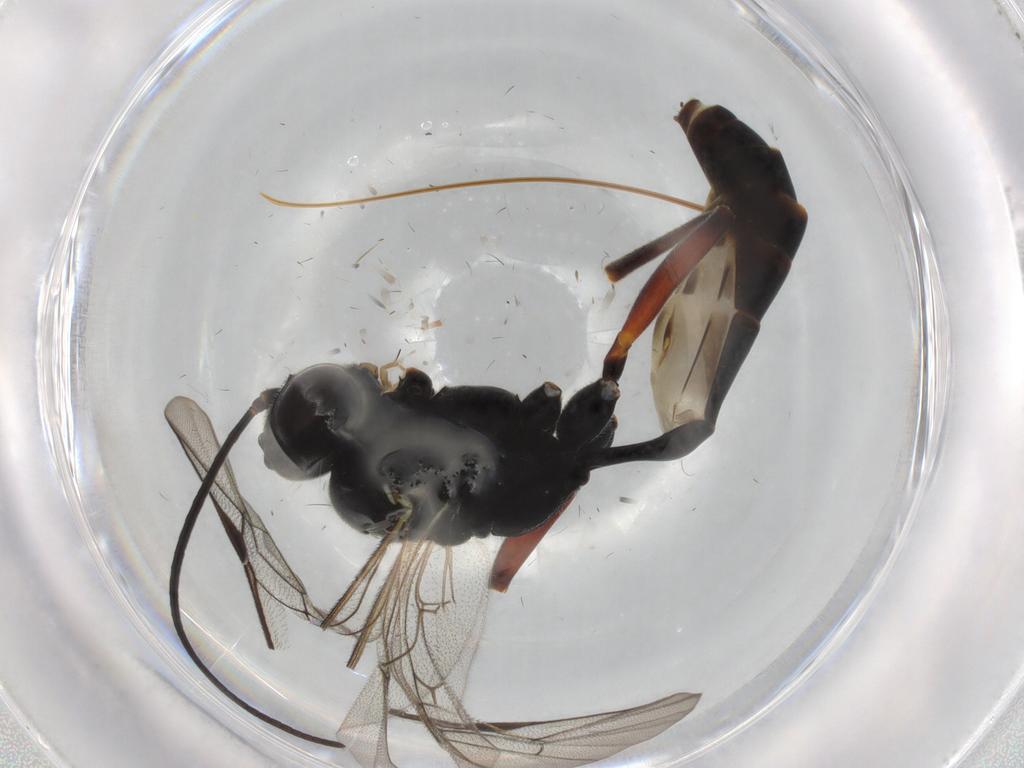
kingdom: Animalia
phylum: Arthropoda
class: Insecta
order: Hymenoptera
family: Ichneumonidae
